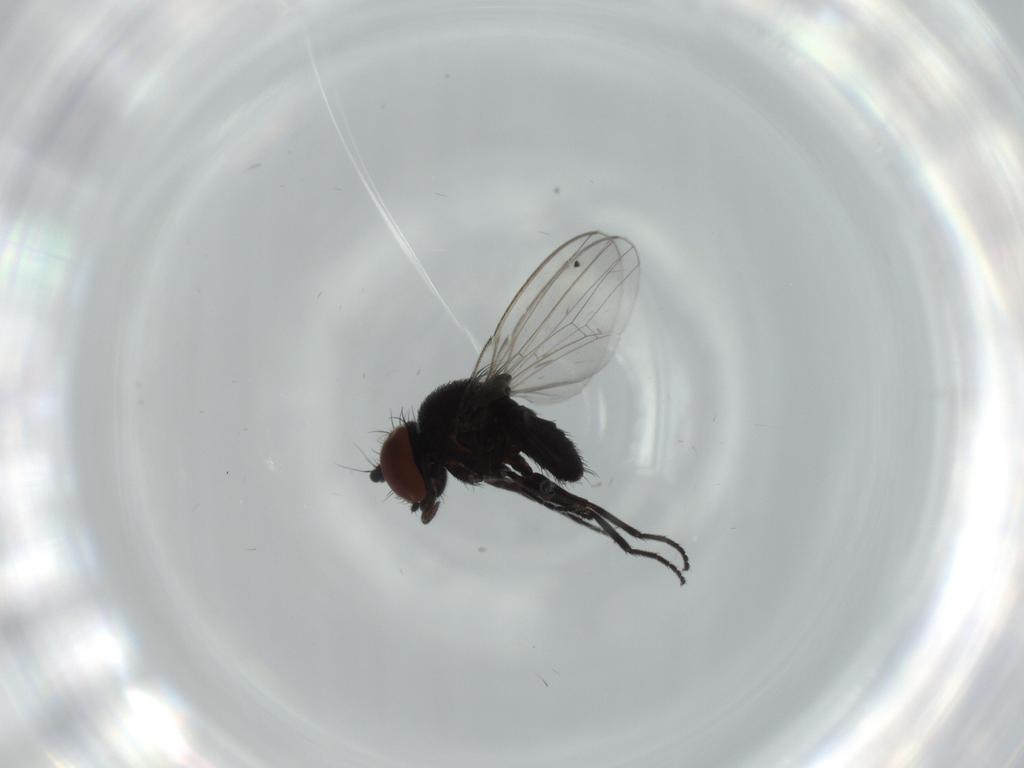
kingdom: Animalia
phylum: Arthropoda
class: Insecta
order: Diptera
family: Milichiidae
